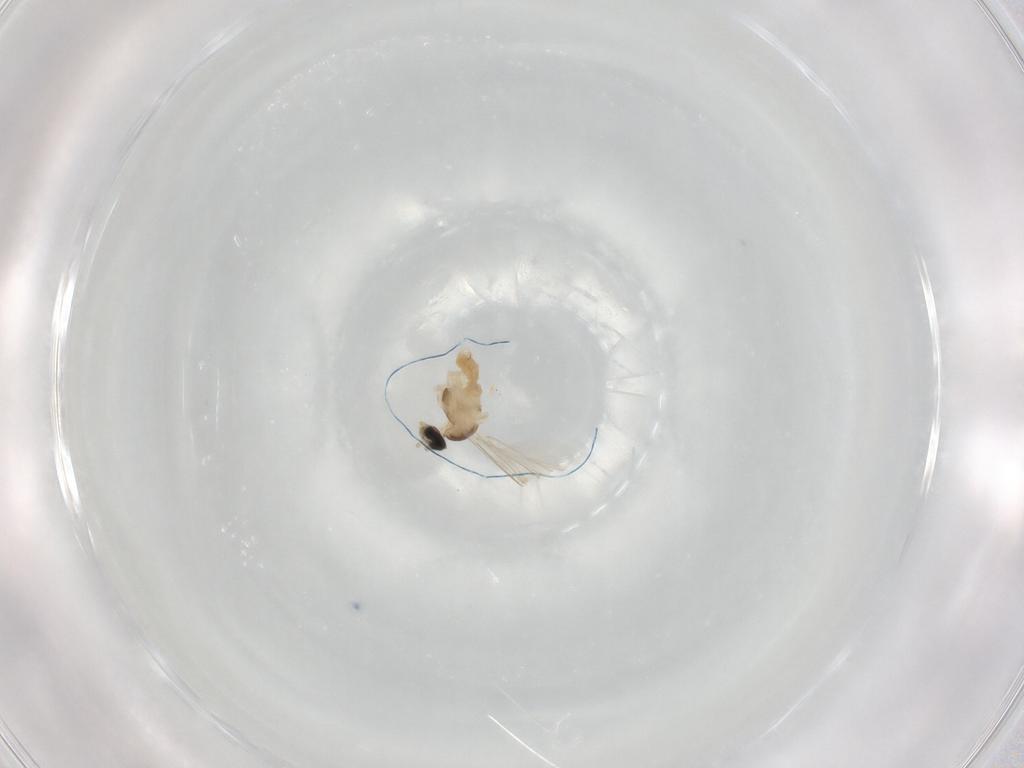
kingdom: Animalia
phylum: Arthropoda
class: Insecta
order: Diptera
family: Cecidomyiidae
